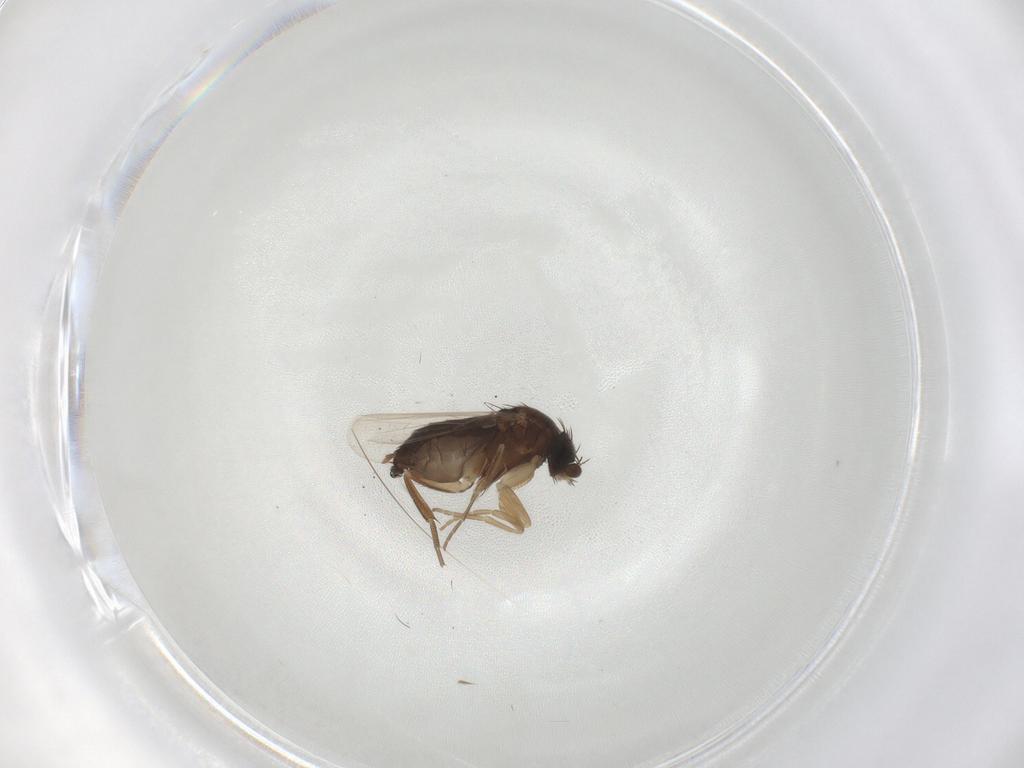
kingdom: Animalia
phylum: Arthropoda
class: Insecta
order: Diptera
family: Phoridae
